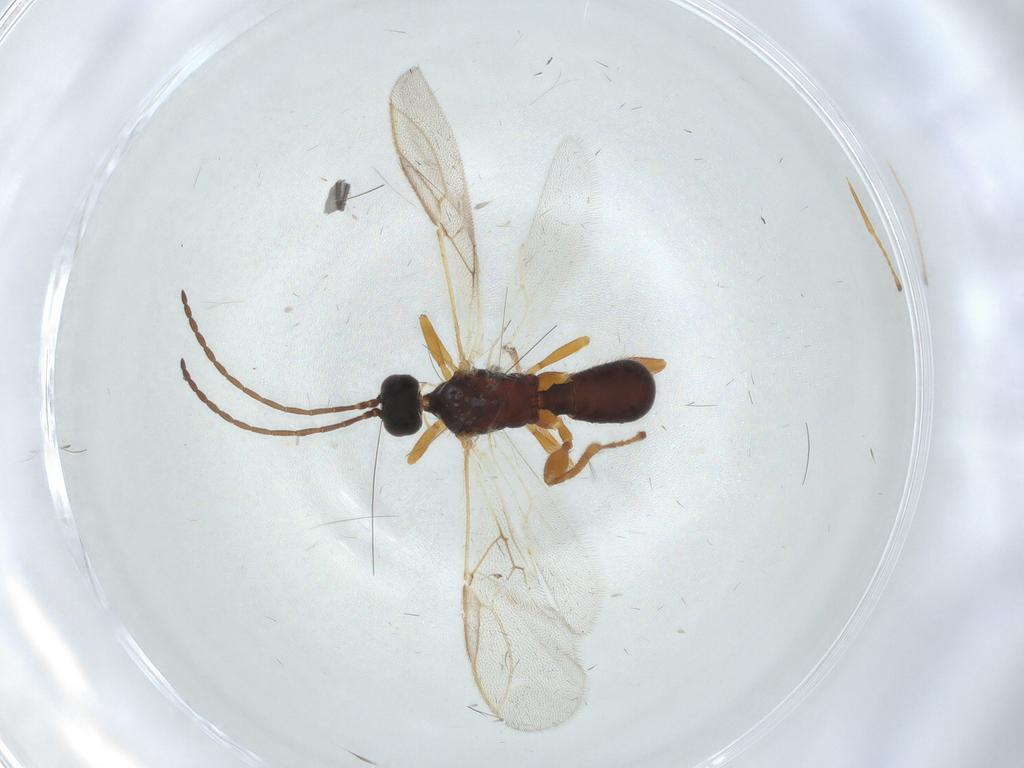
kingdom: Animalia
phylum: Arthropoda
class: Insecta
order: Hymenoptera
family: Braconidae
